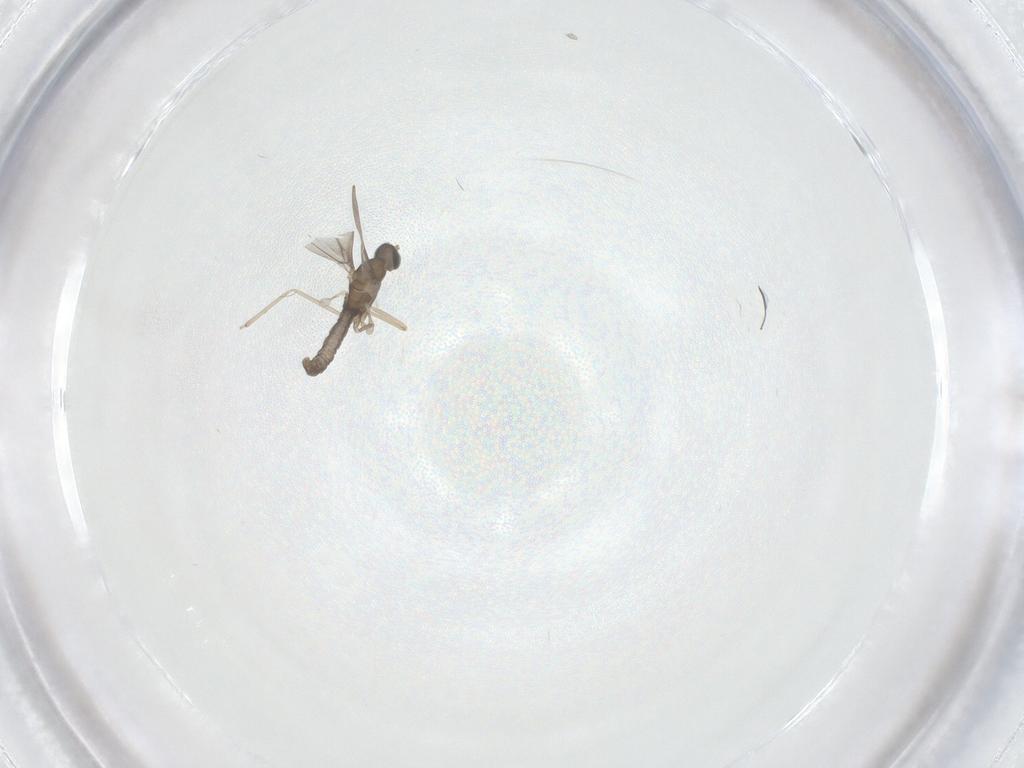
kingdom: Animalia
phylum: Arthropoda
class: Insecta
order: Diptera
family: Cecidomyiidae
